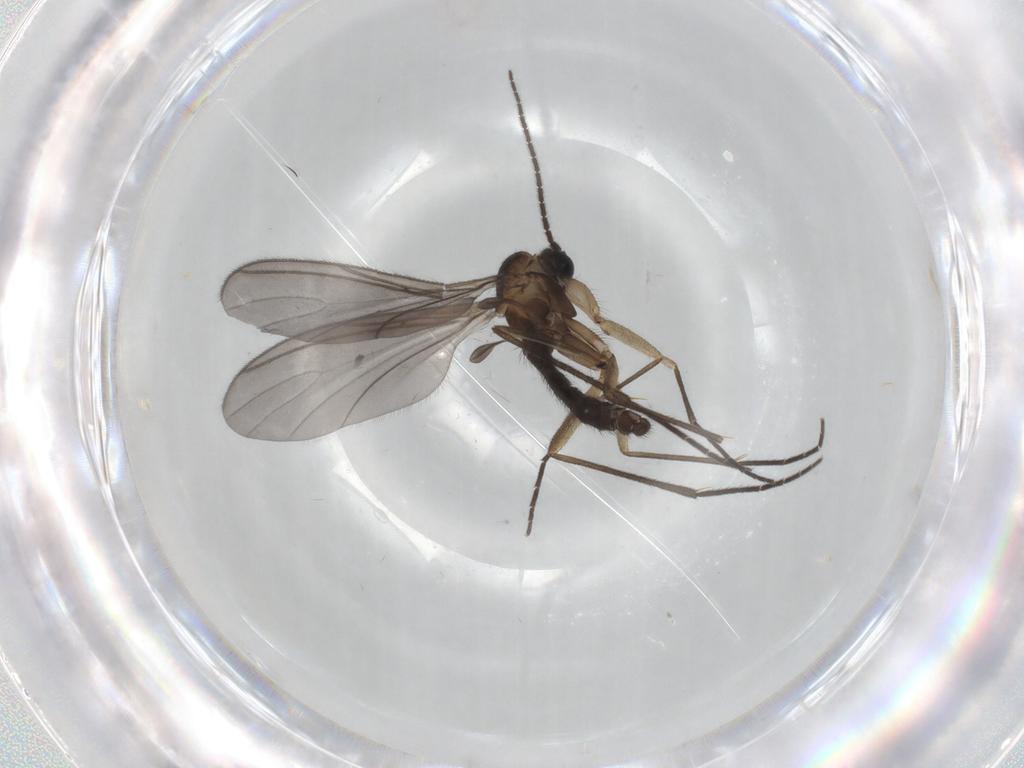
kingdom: Animalia
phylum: Arthropoda
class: Insecta
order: Diptera
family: Sciaridae
